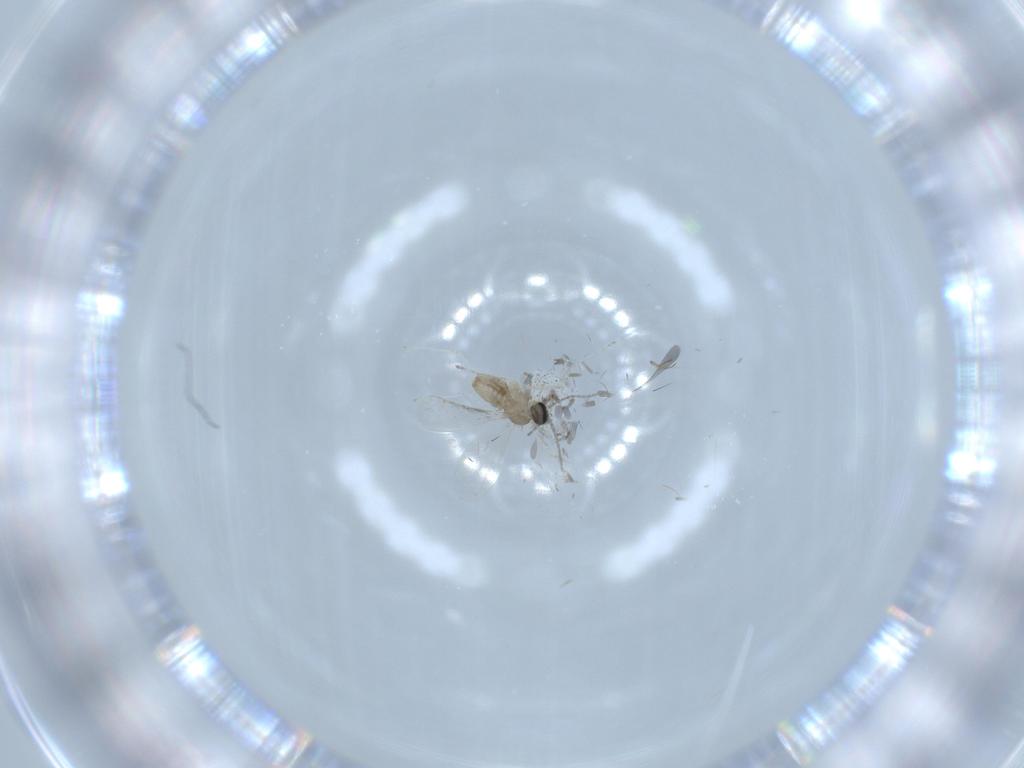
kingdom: Animalia
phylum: Arthropoda
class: Insecta
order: Diptera
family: Cecidomyiidae
